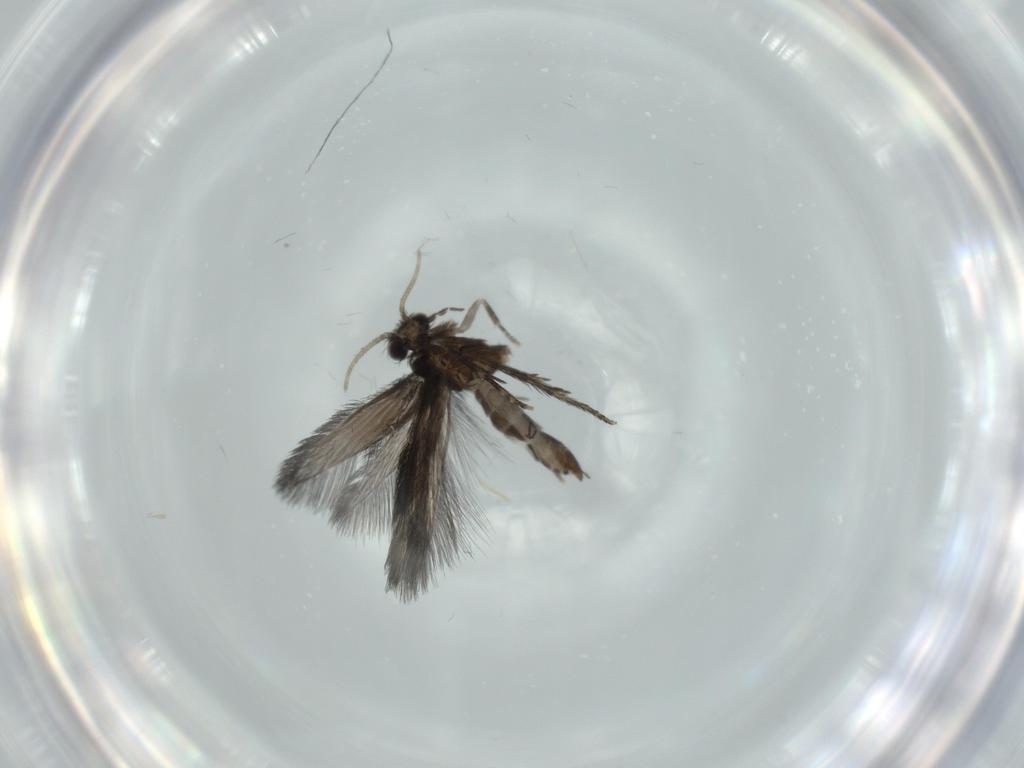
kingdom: Animalia
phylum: Arthropoda
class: Insecta
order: Trichoptera
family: Hydroptilidae
